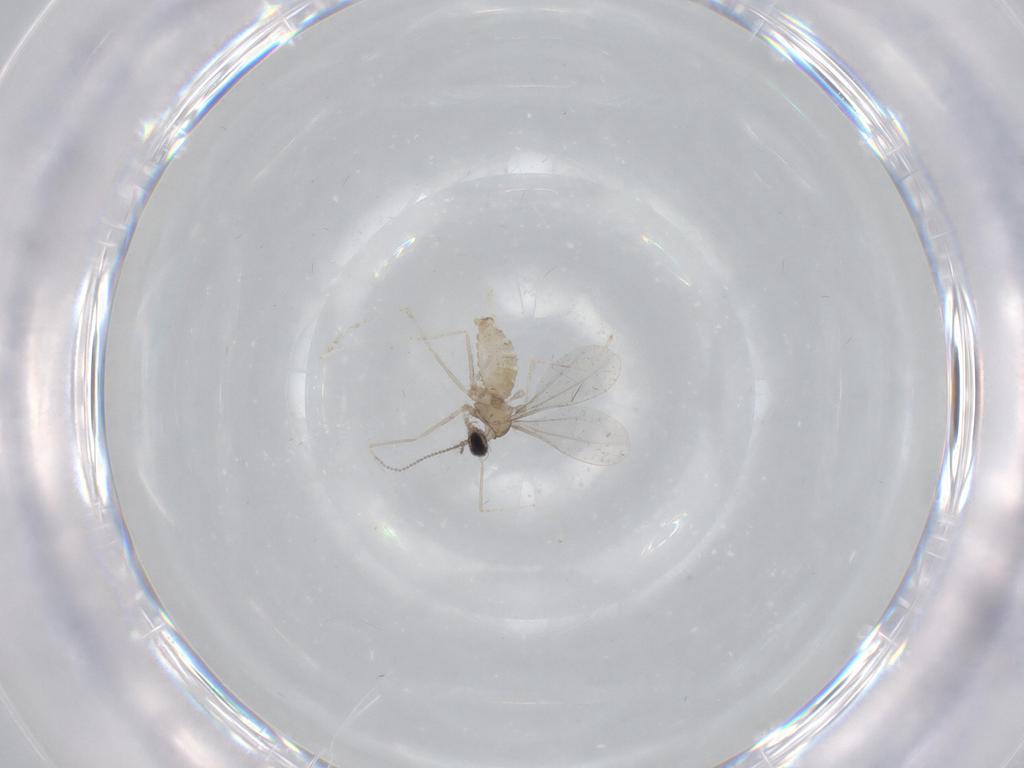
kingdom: Animalia
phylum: Arthropoda
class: Insecta
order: Diptera
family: Cecidomyiidae
